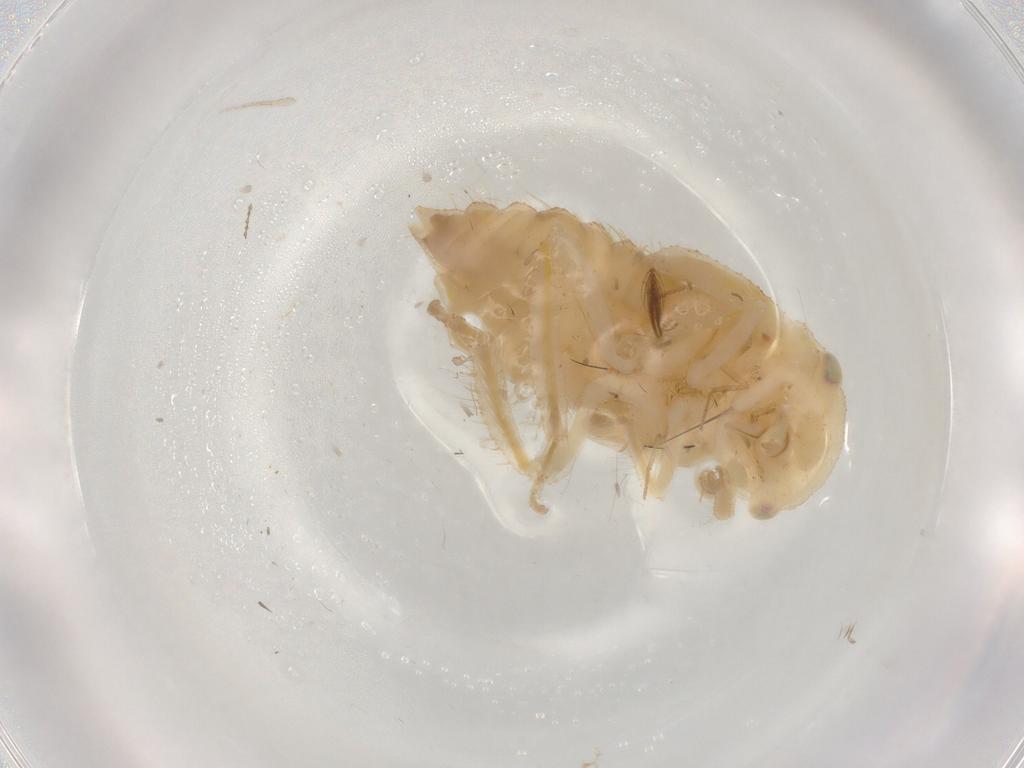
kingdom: Animalia
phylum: Arthropoda
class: Insecta
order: Hemiptera
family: Cicadellidae
